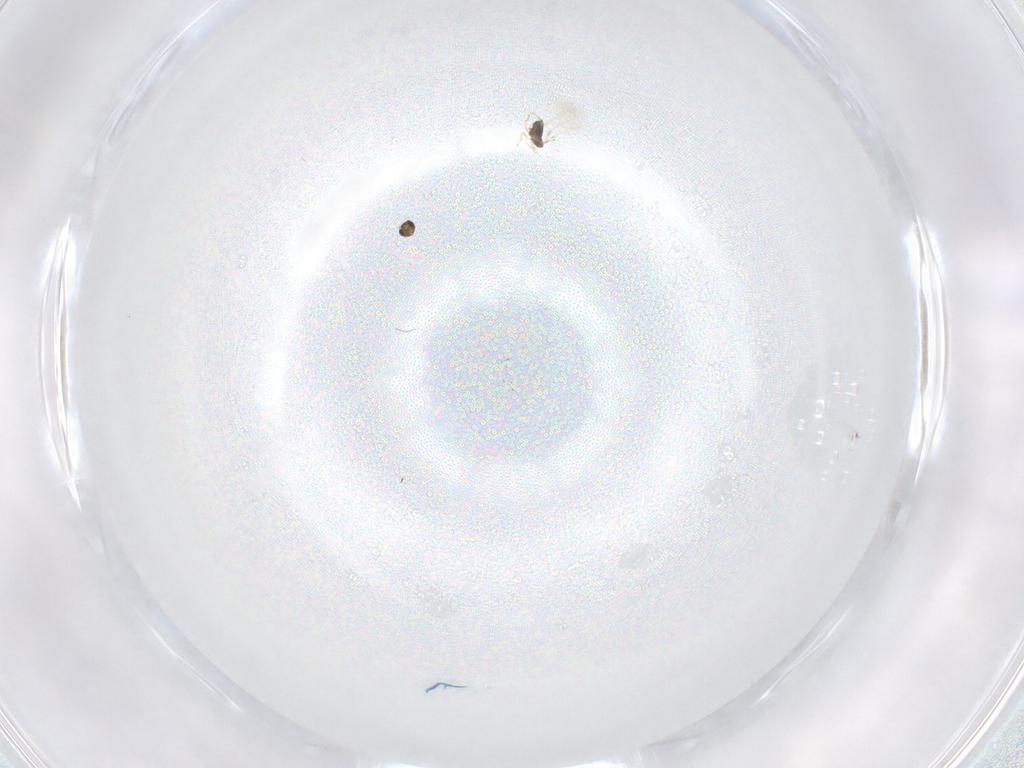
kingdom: Animalia
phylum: Arthropoda
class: Insecta
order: Hymenoptera
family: Mymaridae
